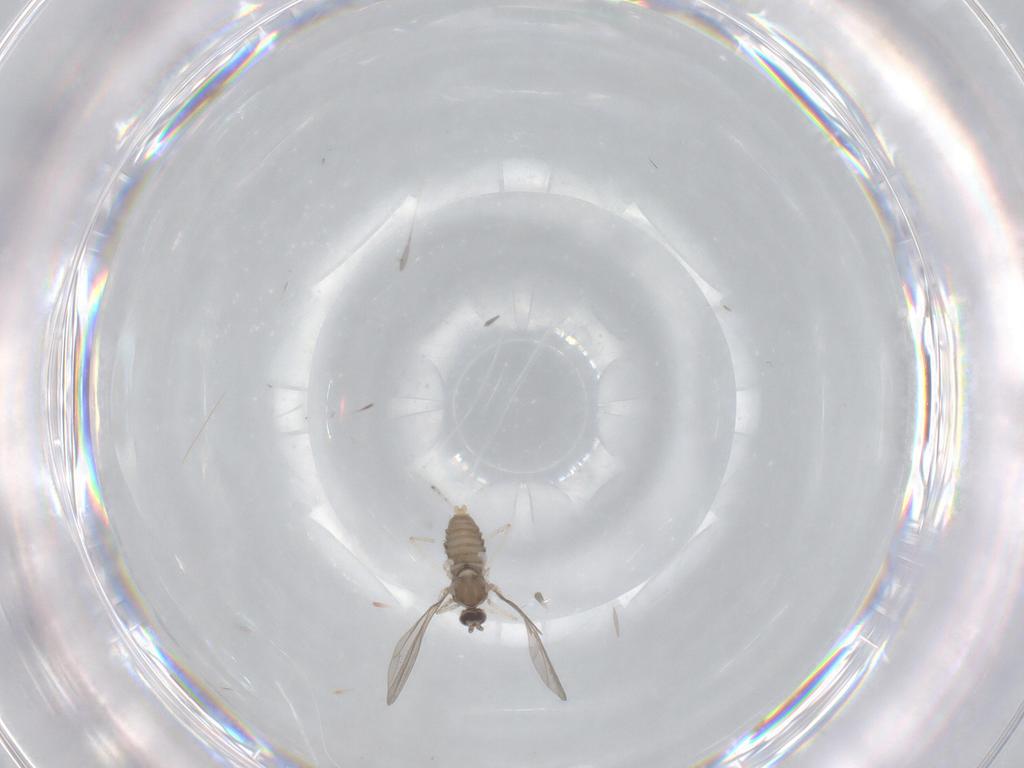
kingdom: Animalia
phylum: Arthropoda
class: Insecta
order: Diptera
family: Cecidomyiidae
